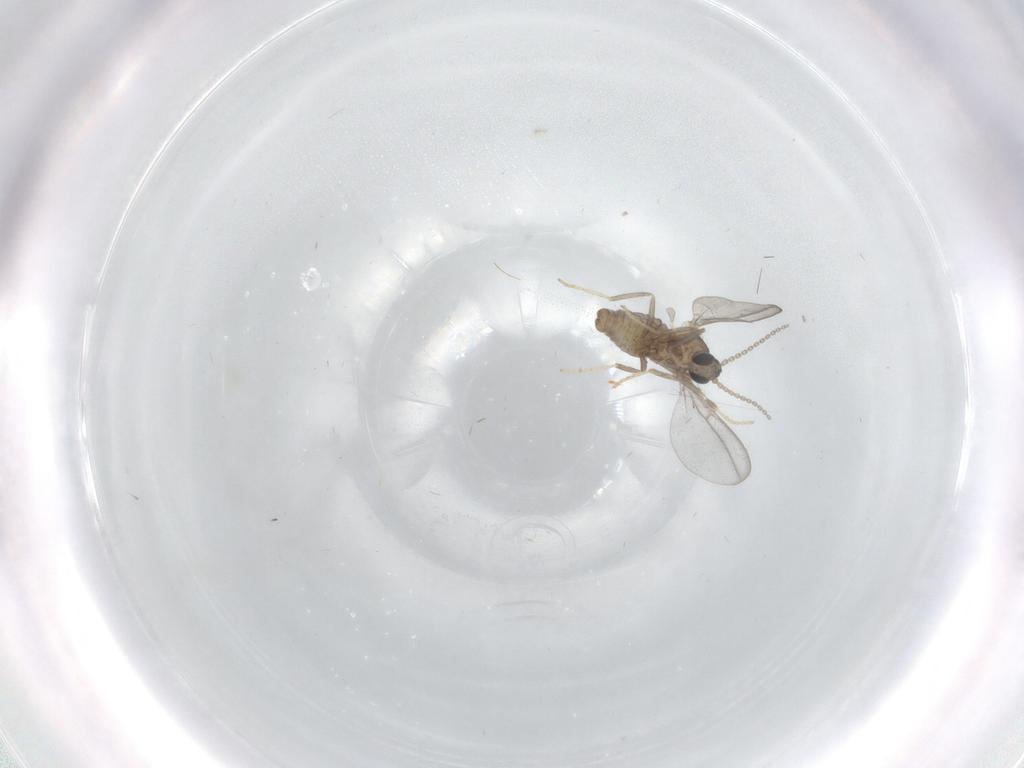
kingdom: Animalia
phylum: Arthropoda
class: Insecta
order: Diptera
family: Cecidomyiidae
